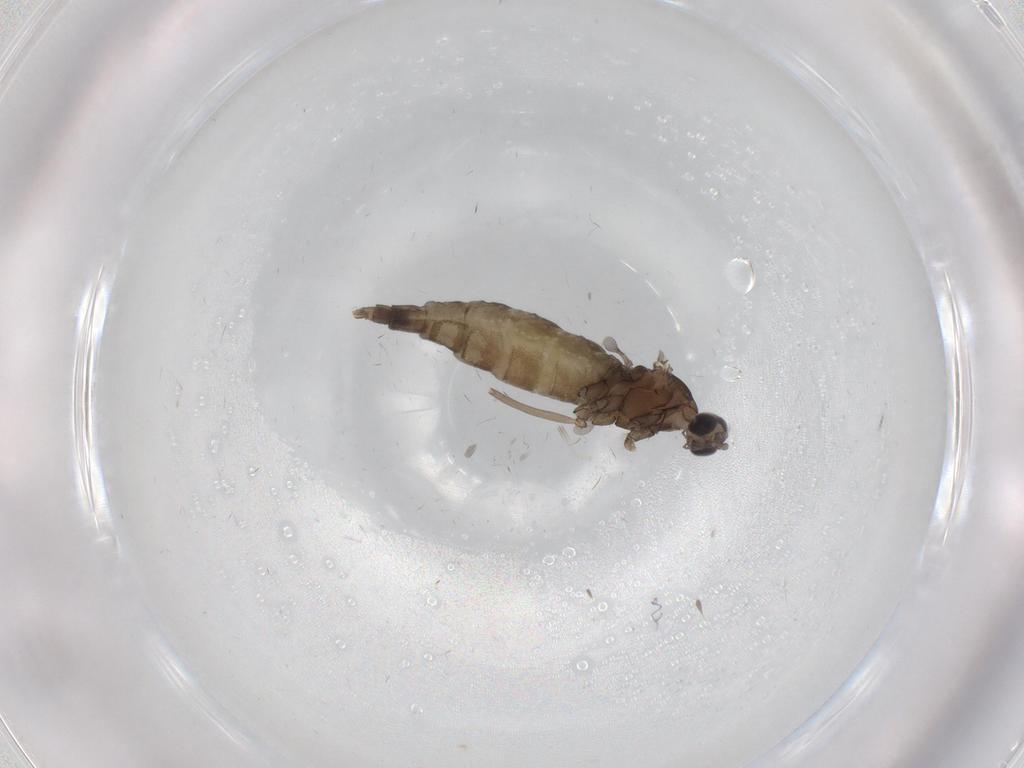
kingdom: Animalia
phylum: Arthropoda
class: Insecta
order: Diptera
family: Cecidomyiidae
